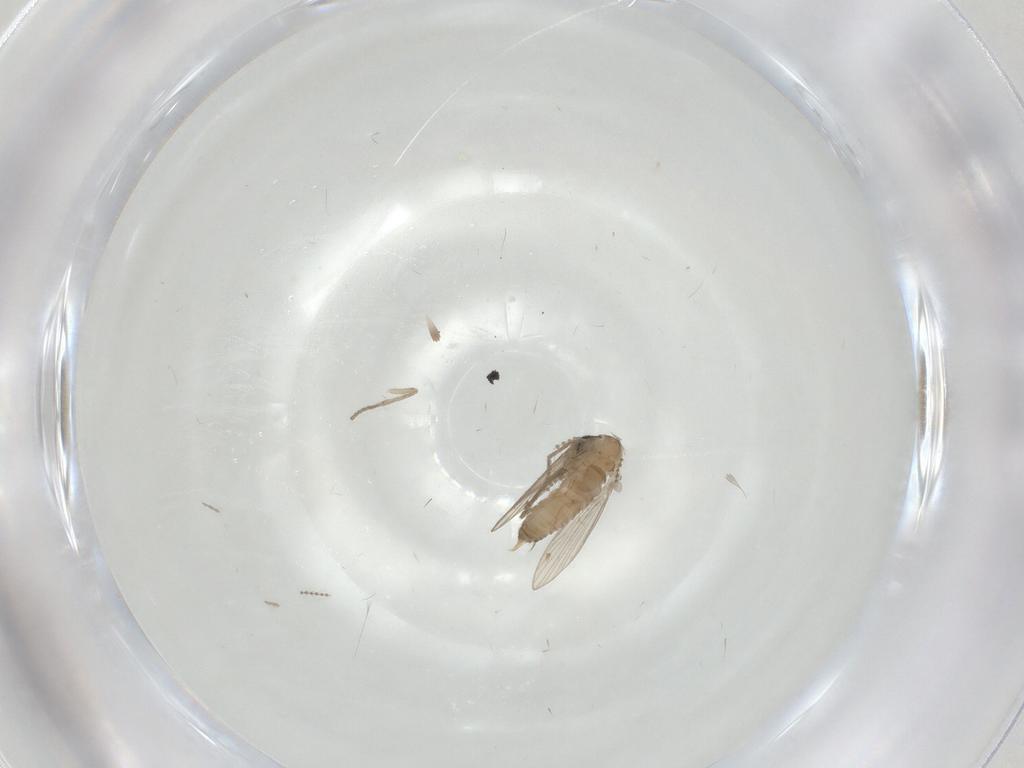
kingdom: Animalia
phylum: Arthropoda
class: Insecta
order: Diptera
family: Psychodidae
